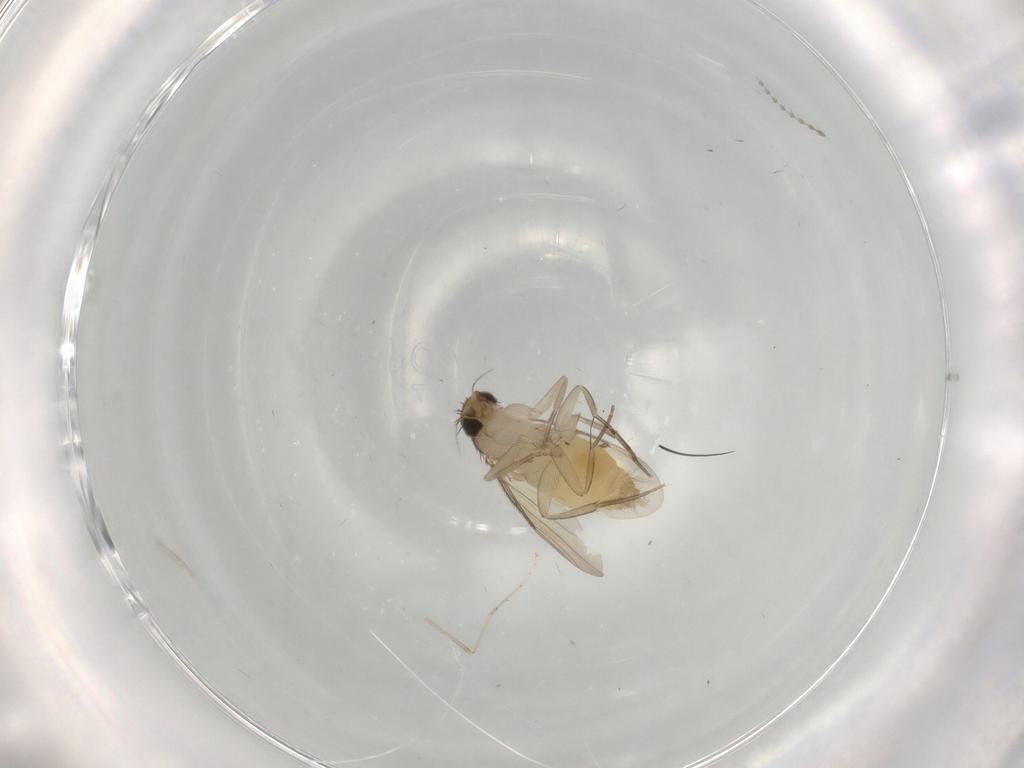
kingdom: Animalia
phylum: Arthropoda
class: Insecta
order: Diptera
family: Cecidomyiidae
